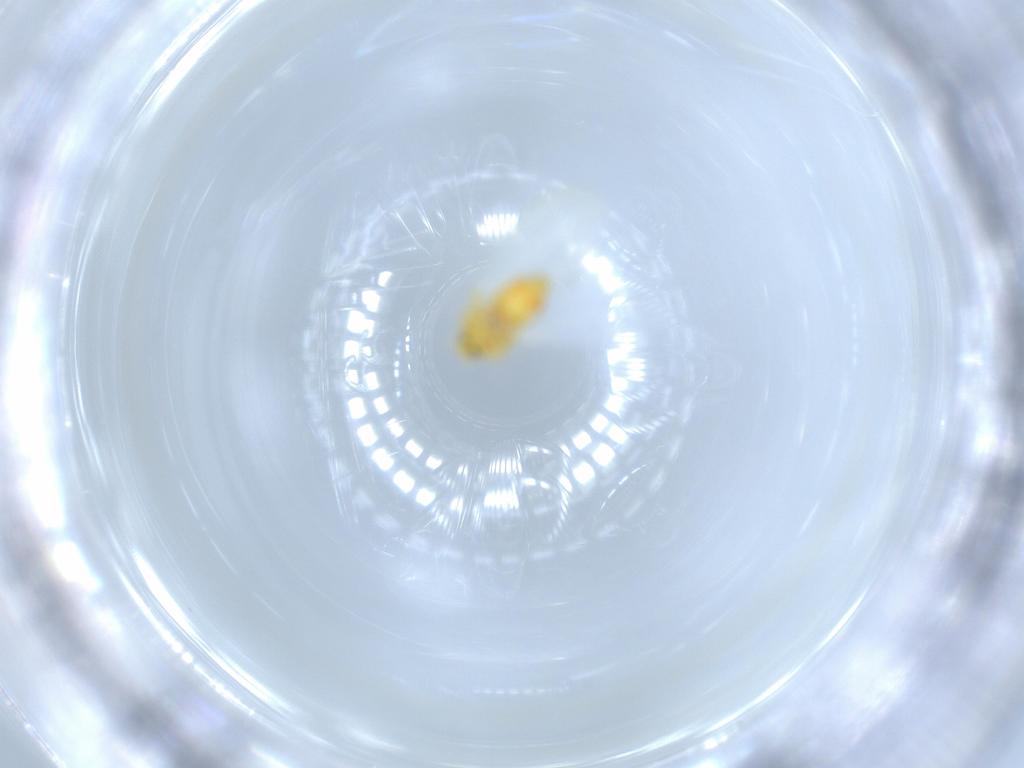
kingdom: Animalia
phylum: Arthropoda
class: Insecta
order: Hemiptera
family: Aleyrodidae
